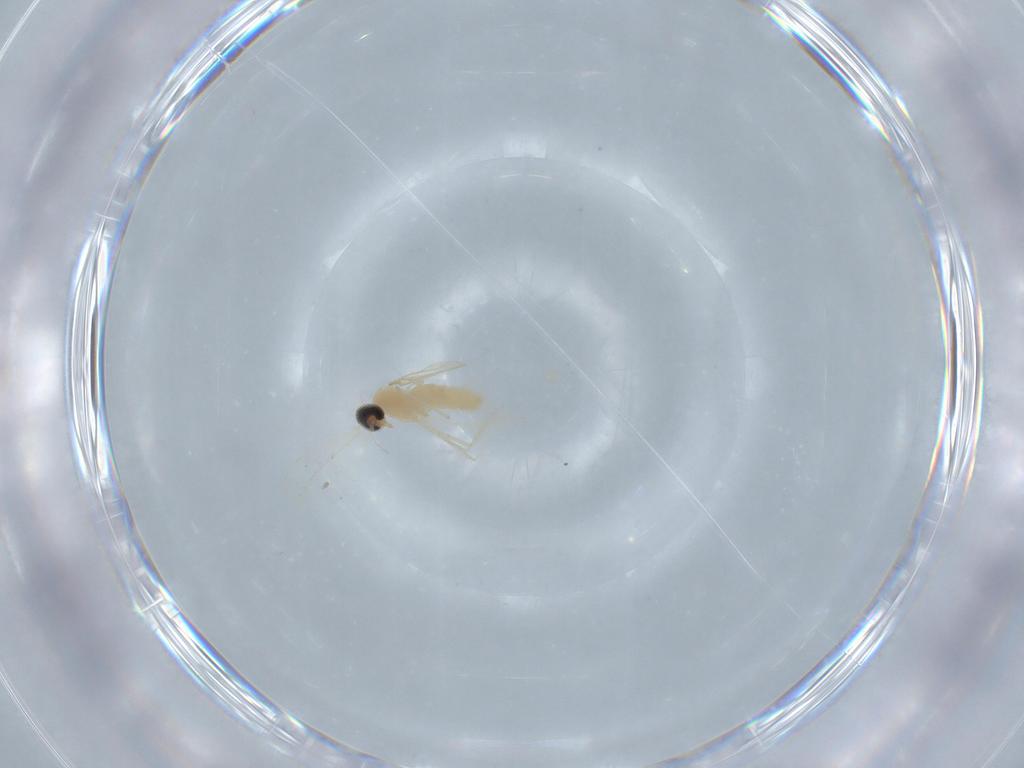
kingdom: Animalia
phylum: Arthropoda
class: Insecta
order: Diptera
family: Cecidomyiidae
